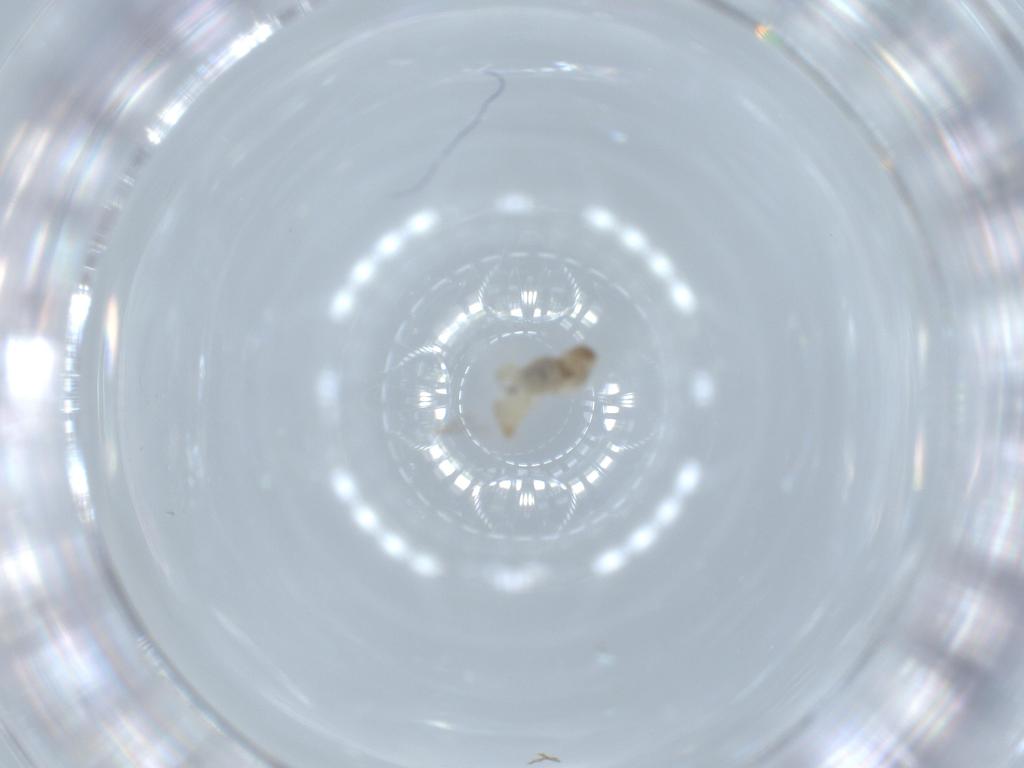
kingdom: Animalia
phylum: Arthropoda
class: Insecta
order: Diptera
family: Cecidomyiidae
